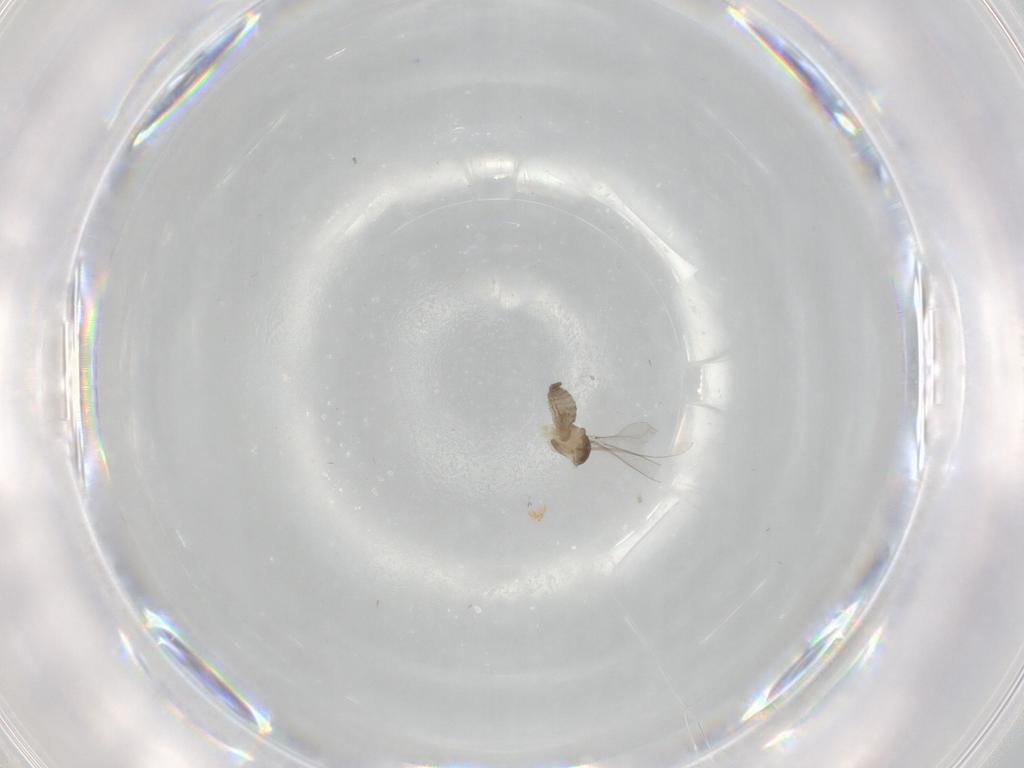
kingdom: Animalia
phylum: Arthropoda
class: Insecta
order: Diptera
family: Cecidomyiidae
